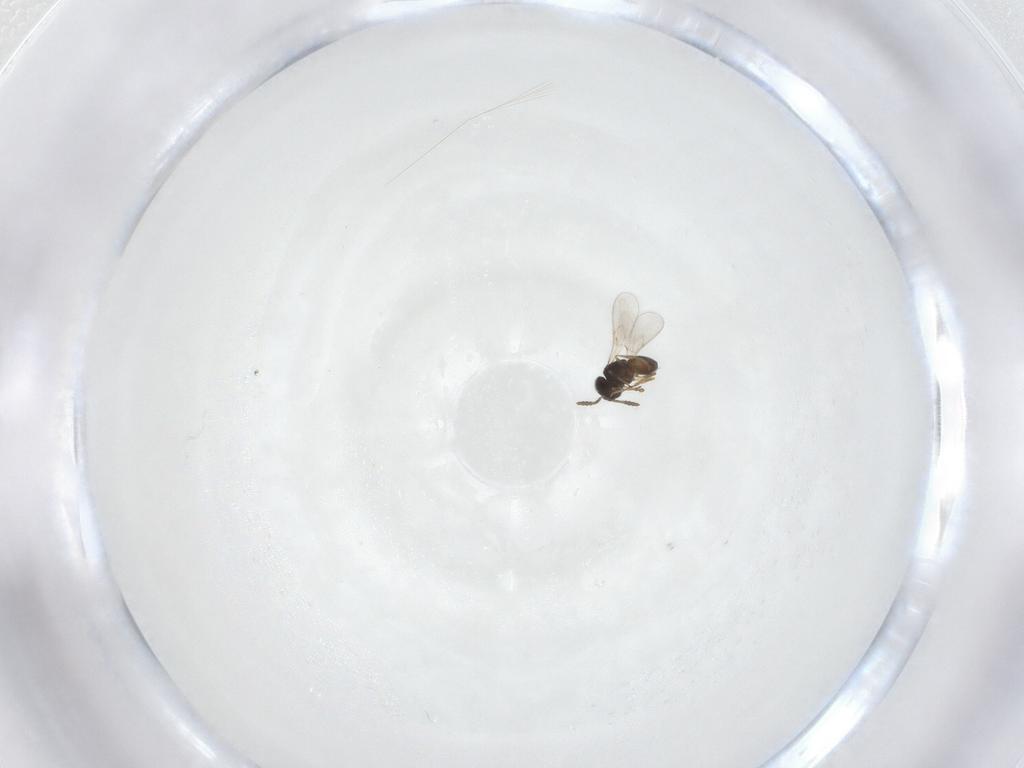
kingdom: Animalia
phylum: Arthropoda
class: Insecta
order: Hymenoptera
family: Scelionidae
